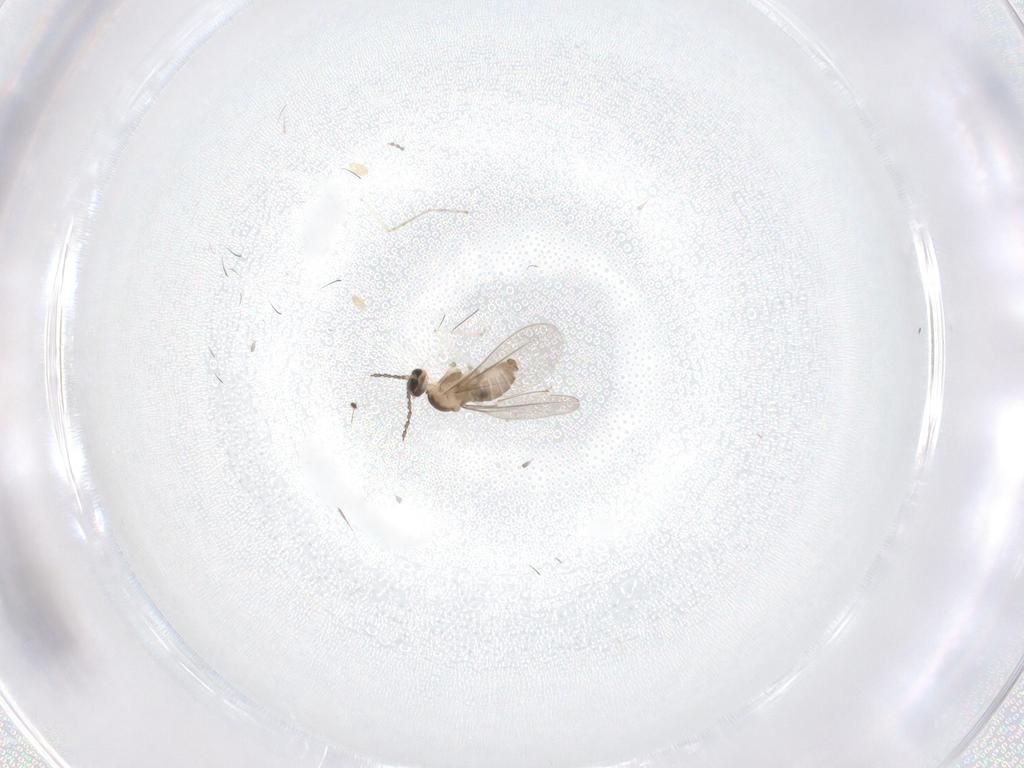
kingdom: Animalia
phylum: Arthropoda
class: Insecta
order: Diptera
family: Cecidomyiidae
